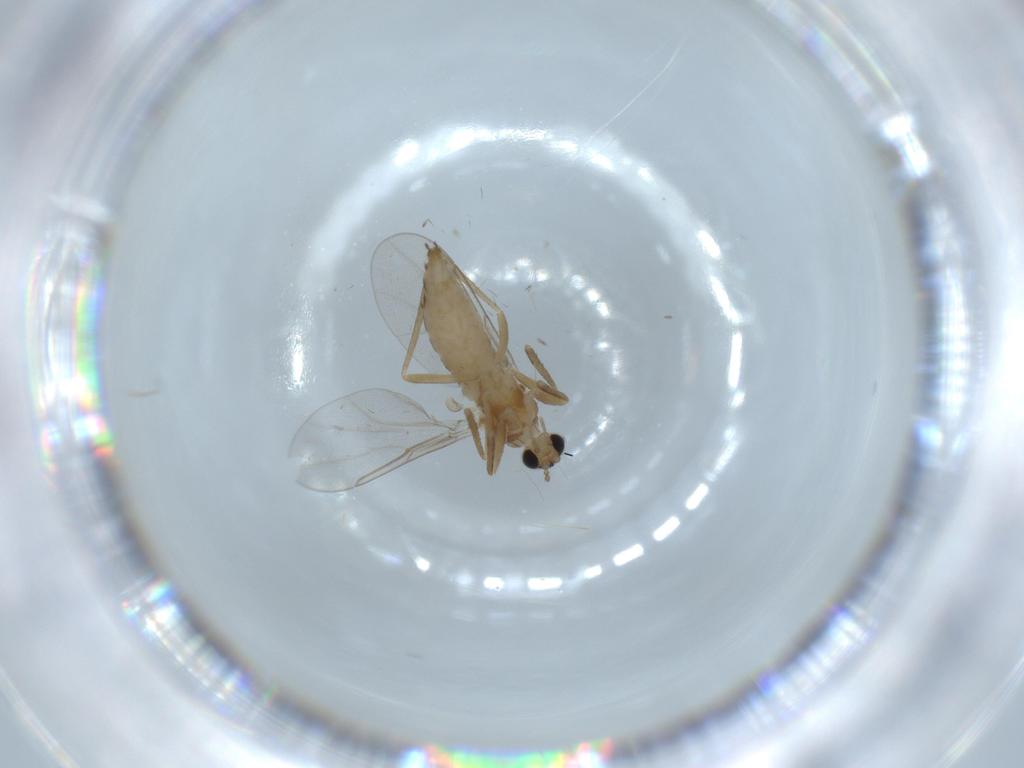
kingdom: Animalia
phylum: Arthropoda
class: Insecta
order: Diptera
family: Cecidomyiidae
